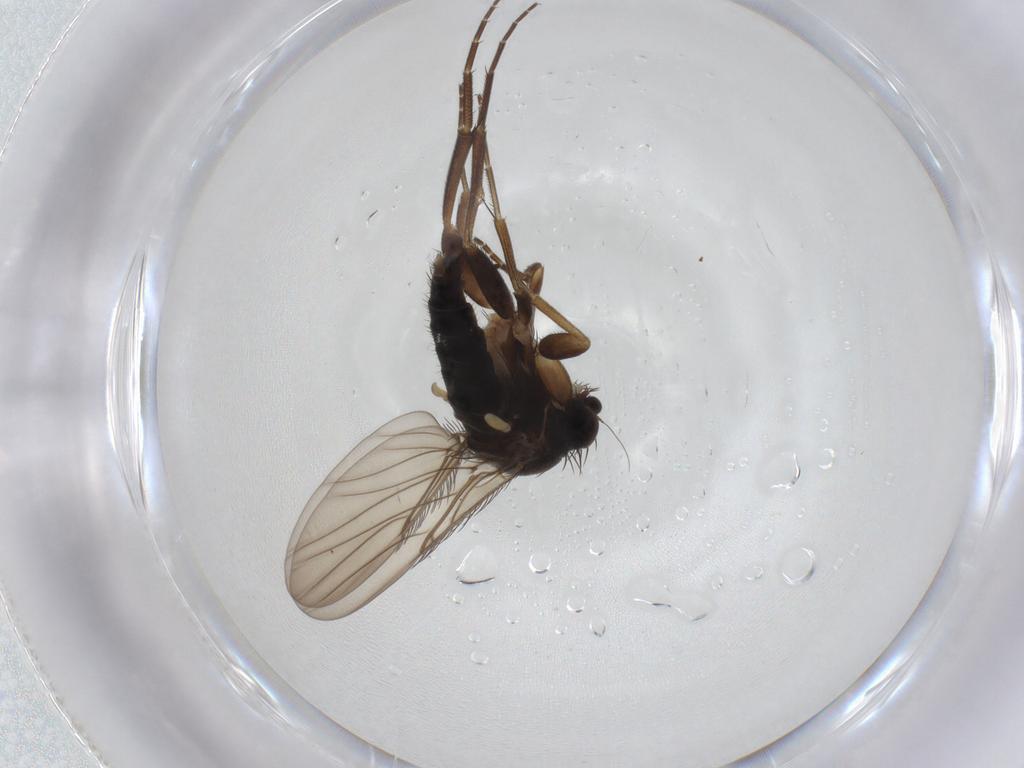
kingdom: Animalia
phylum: Arthropoda
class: Insecta
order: Diptera
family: Phoridae
